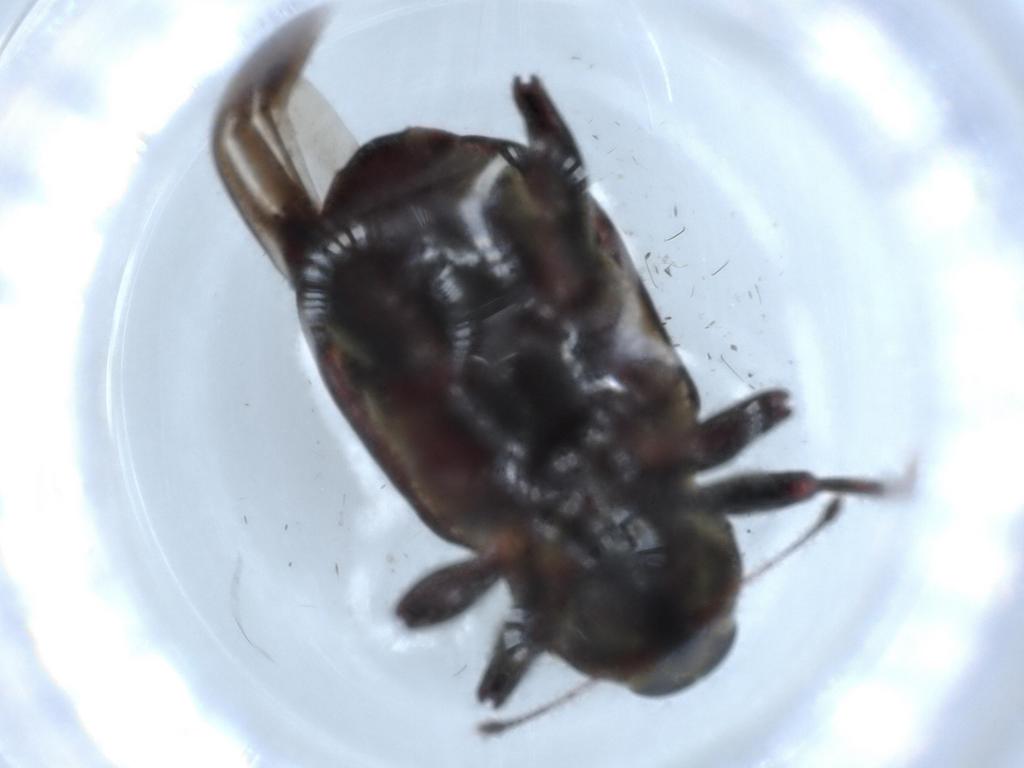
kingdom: Animalia
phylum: Arthropoda
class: Insecta
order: Coleoptera
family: Curculionidae
